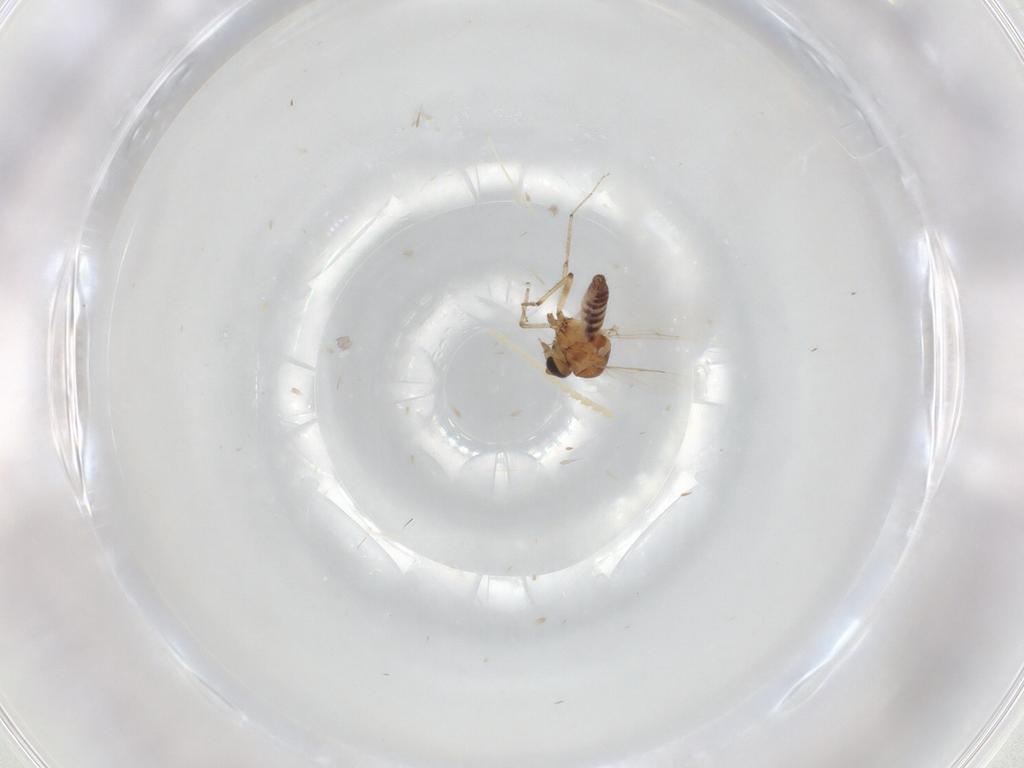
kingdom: Animalia
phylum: Arthropoda
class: Insecta
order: Diptera
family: Cecidomyiidae
